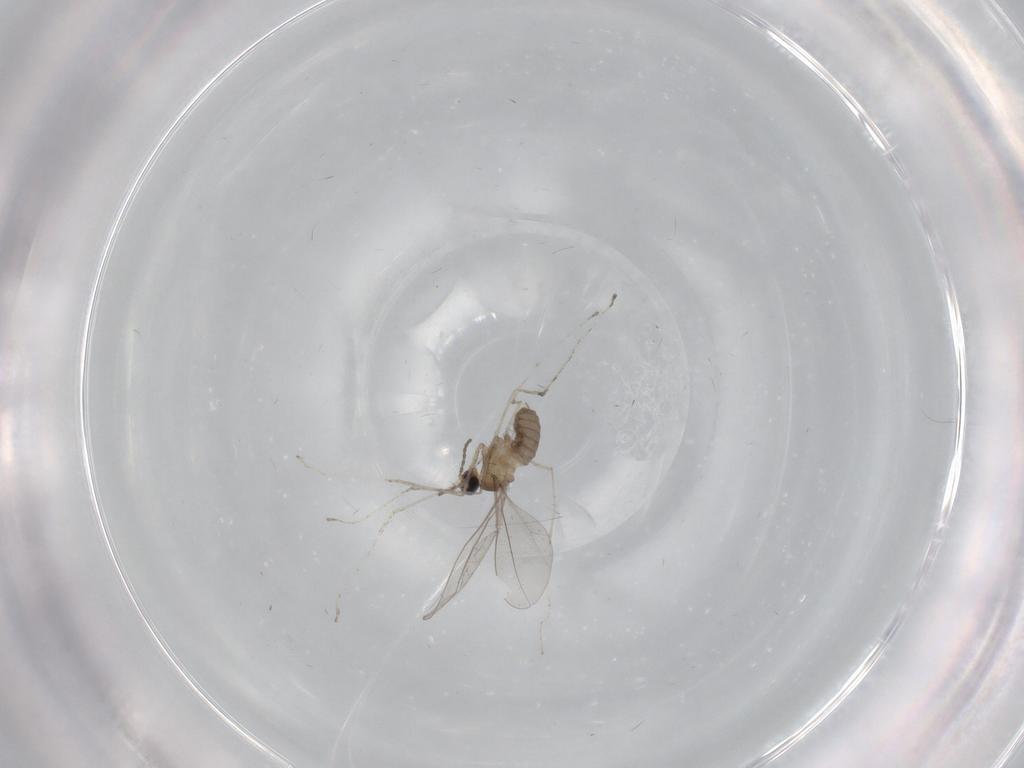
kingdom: Animalia
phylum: Arthropoda
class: Insecta
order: Diptera
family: Cecidomyiidae
